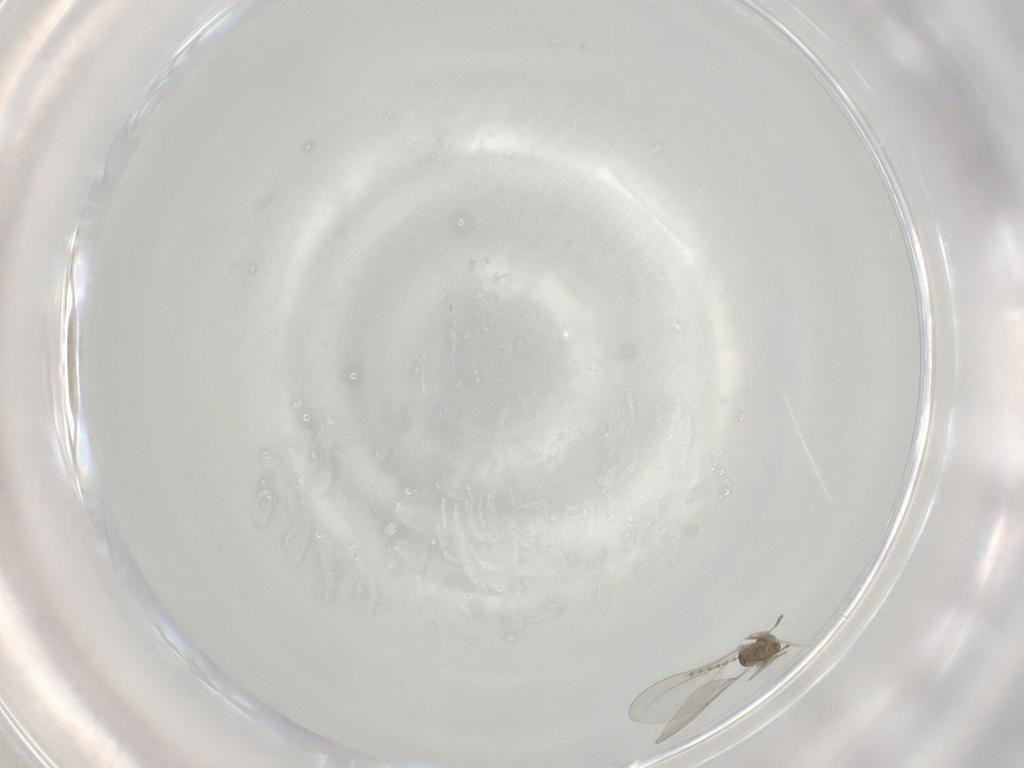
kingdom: Animalia
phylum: Arthropoda
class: Insecta
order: Diptera
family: Cecidomyiidae
